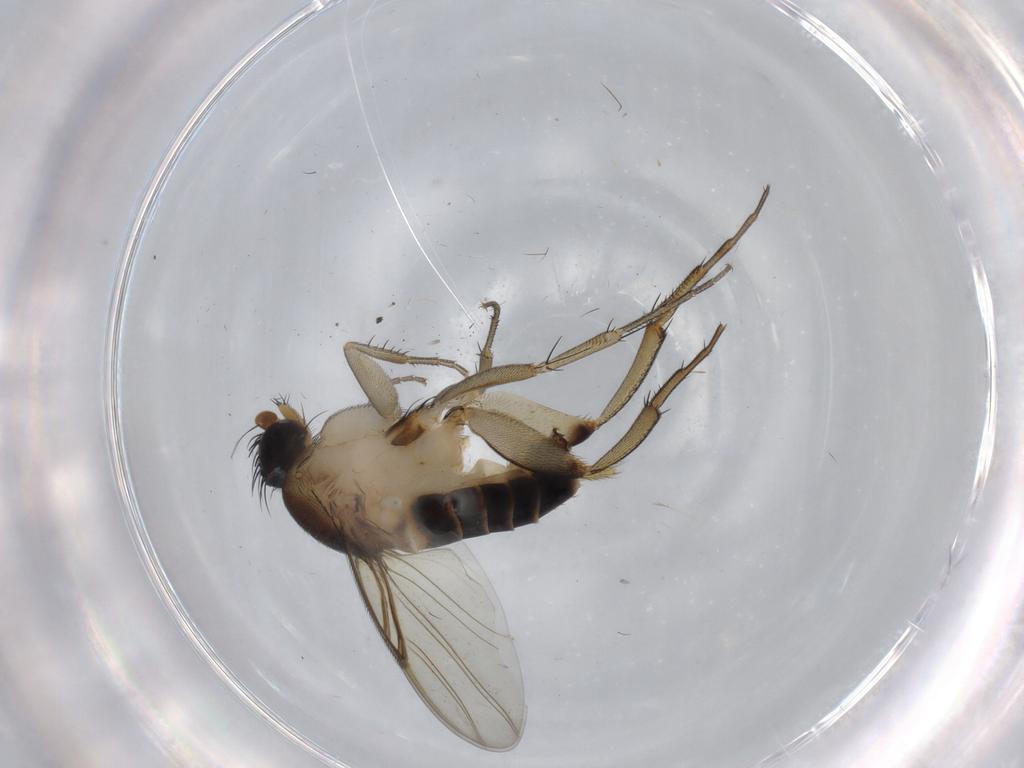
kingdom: Animalia
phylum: Arthropoda
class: Insecta
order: Diptera
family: Phoridae
